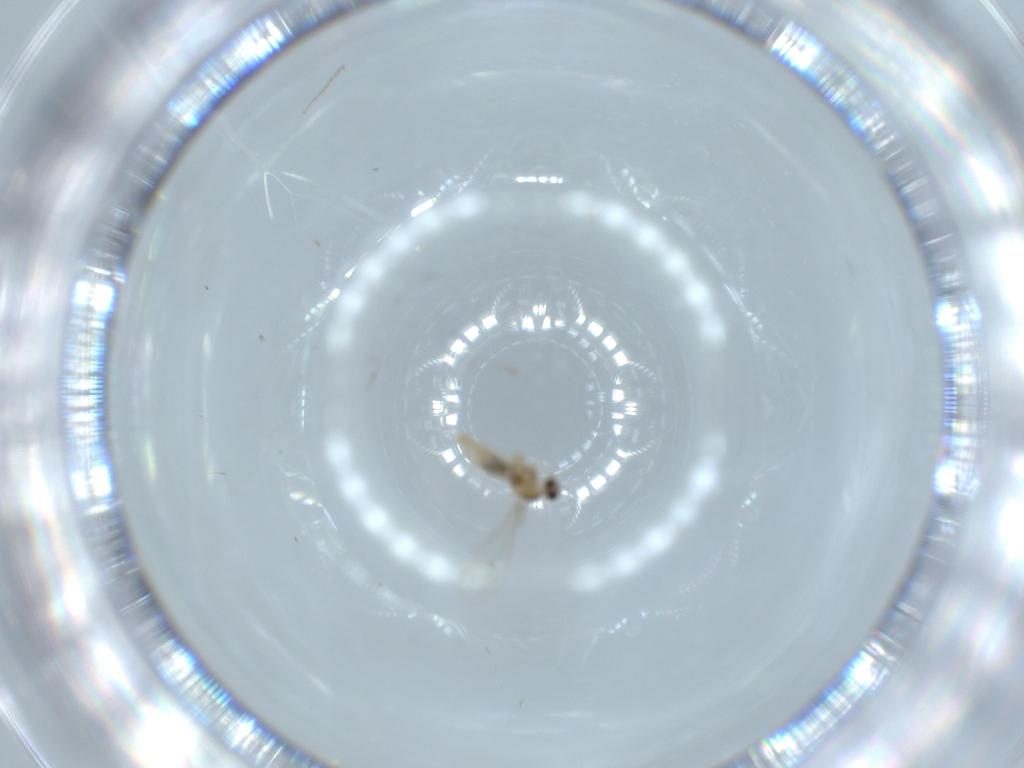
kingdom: Animalia
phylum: Arthropoda
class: Insecta
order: Diptera
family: Cecidomyiidae
